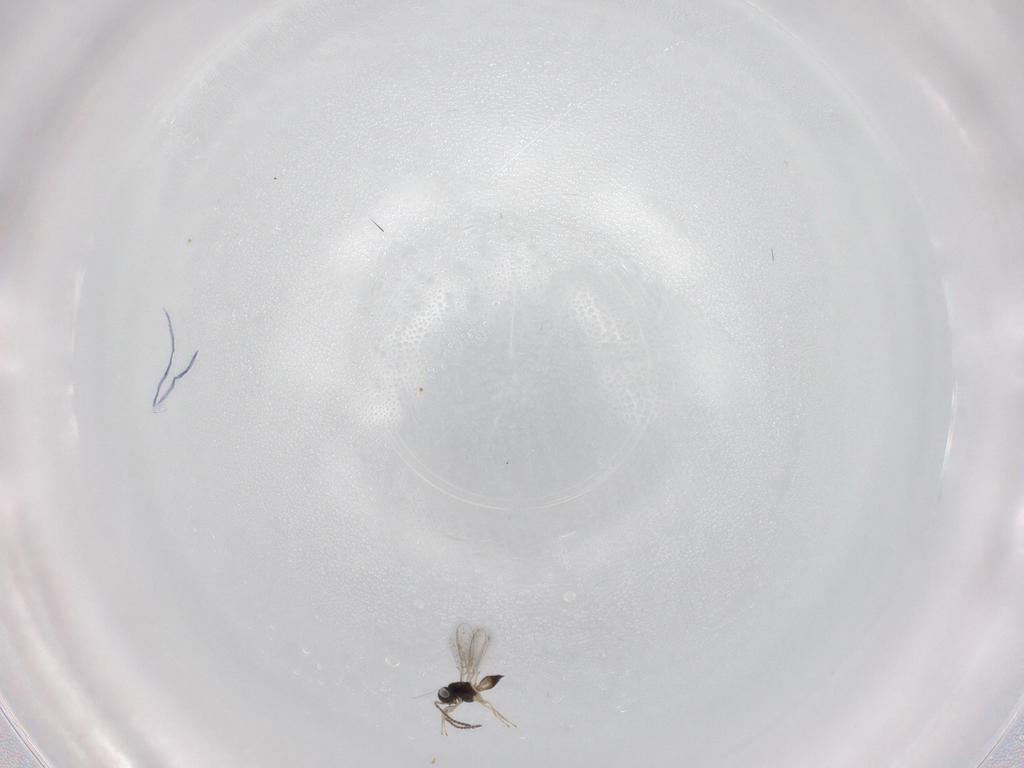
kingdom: Animalia
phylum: Arthropoda
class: Insecta
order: Hymenoptera
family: Scelionidae
